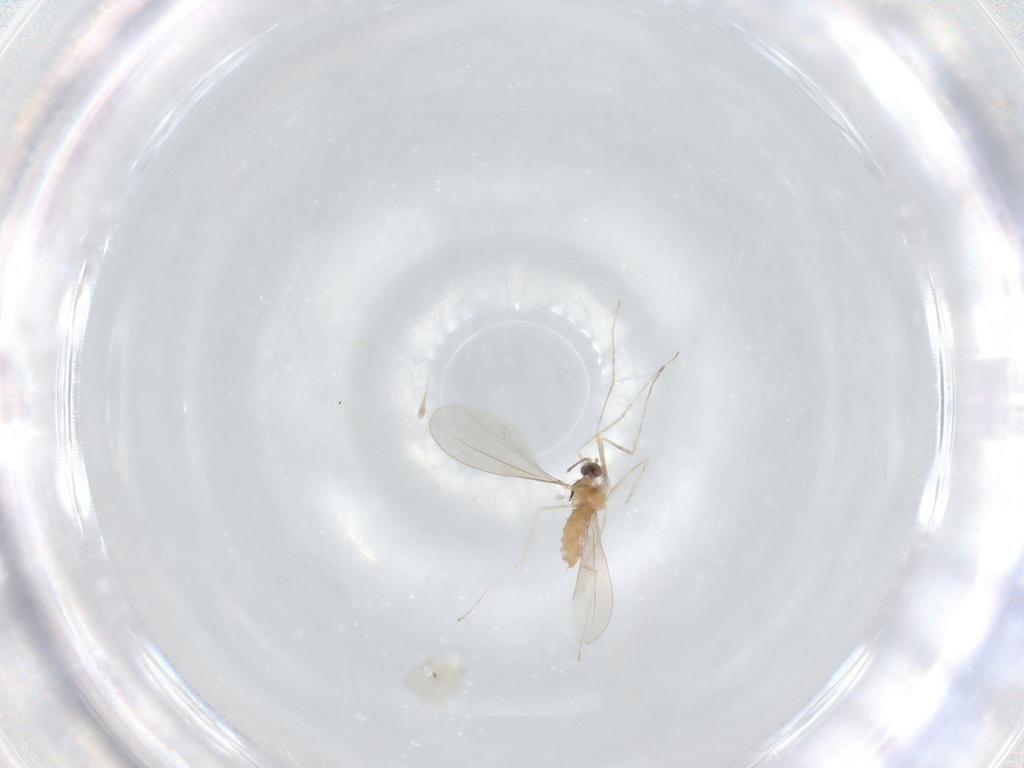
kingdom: Animalia
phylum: Arthropoda
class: Insecta
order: Diptera
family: Cecidomyiidae
